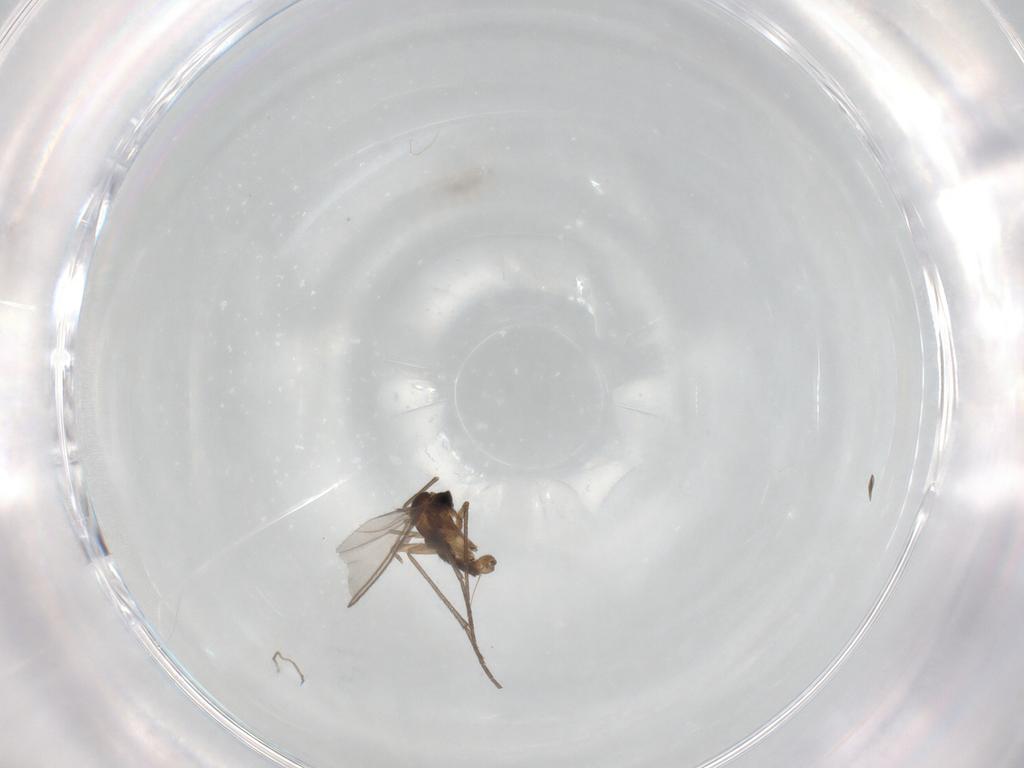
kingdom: Animalia
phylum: Arthropoda
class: Insecta
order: Diptera
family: Sciaridae
